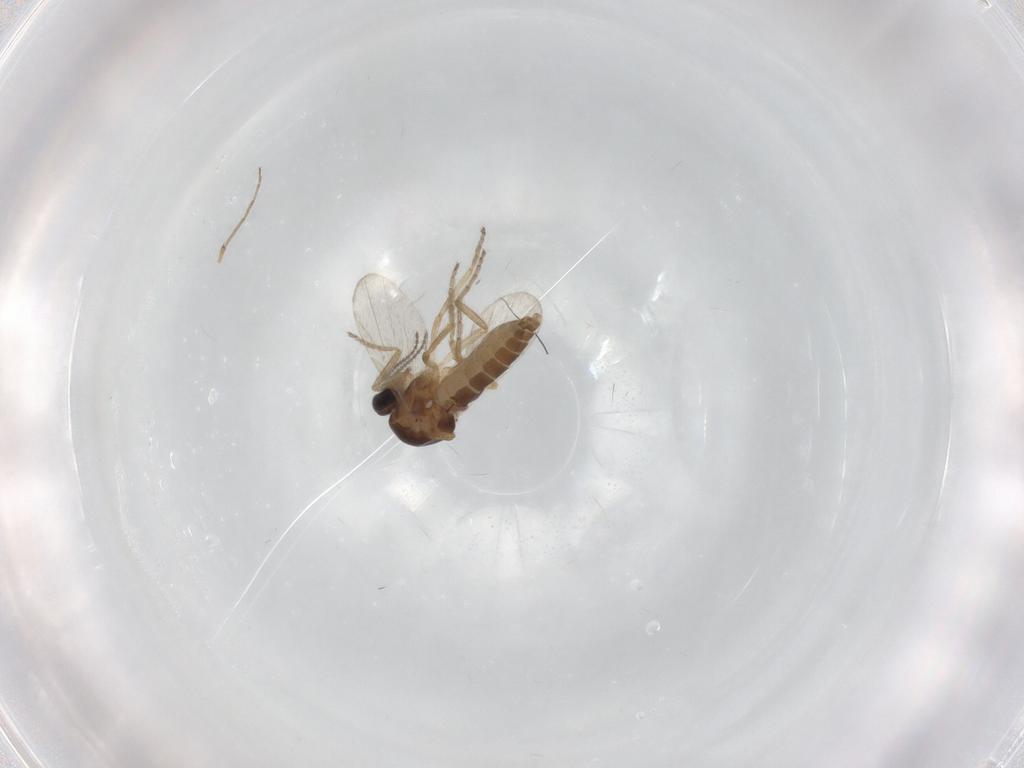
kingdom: Animalia
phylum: Arthropoda
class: Insecta
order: Diptera
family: Ceratopogonidae
